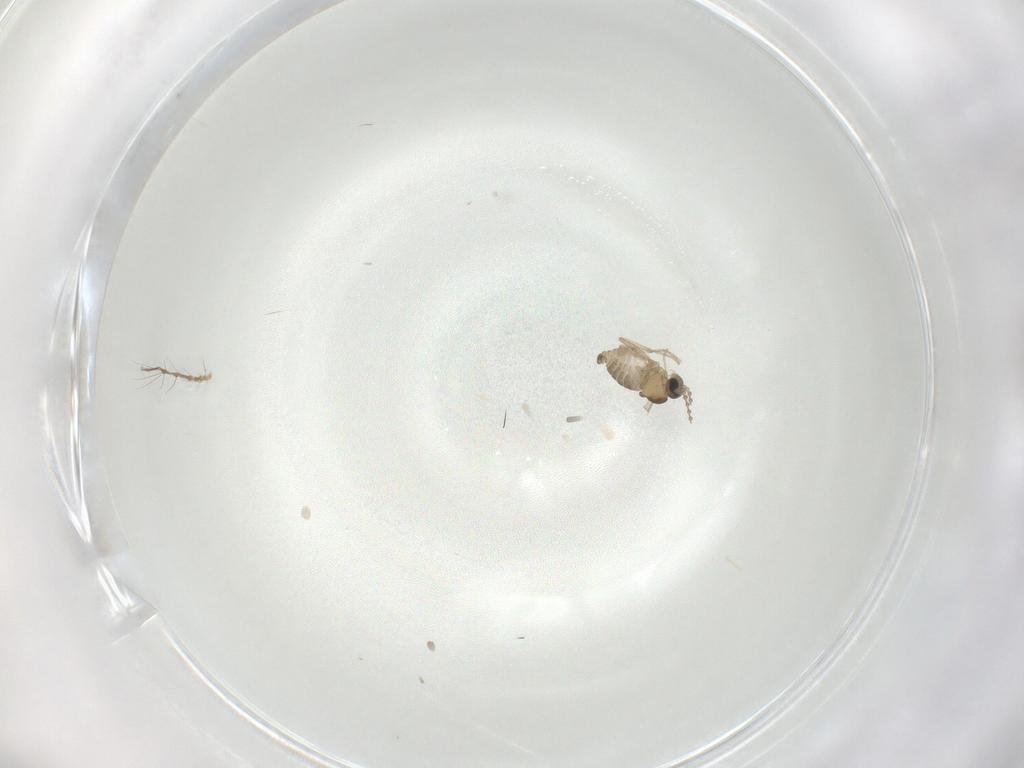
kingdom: Animalia
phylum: Arthropoda
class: Insecta
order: Diptera
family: Cecidomyiidae
